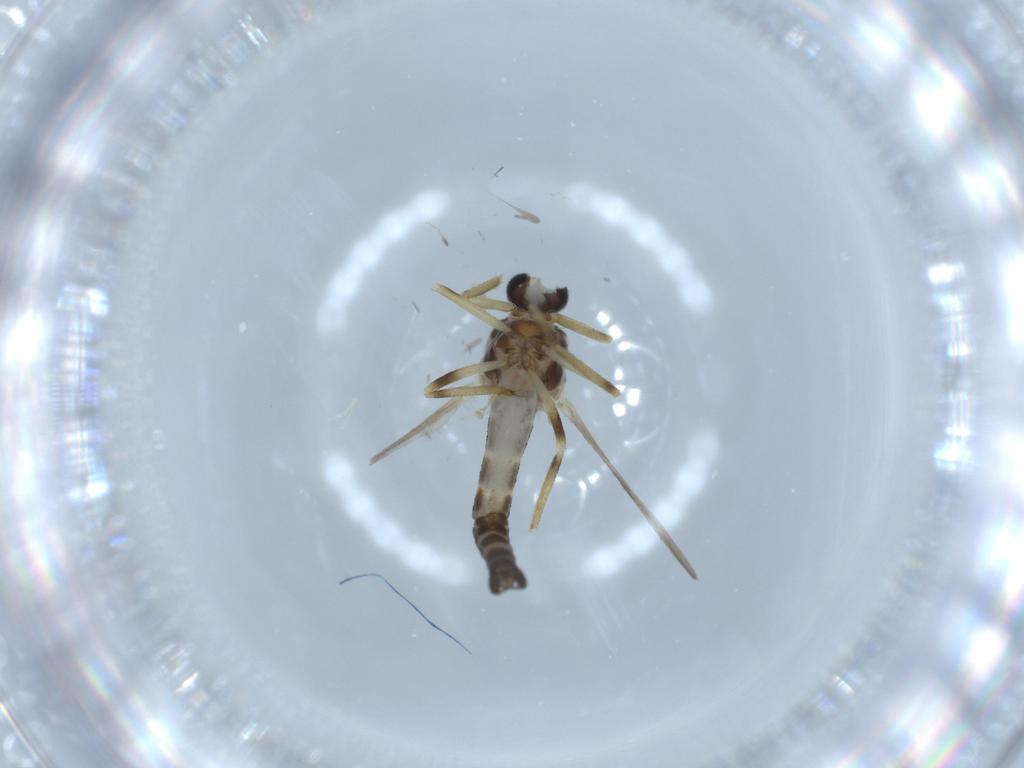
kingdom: Animalia
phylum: Arthropoda
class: Insecta
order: Diptera
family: Ceratopogonidae
